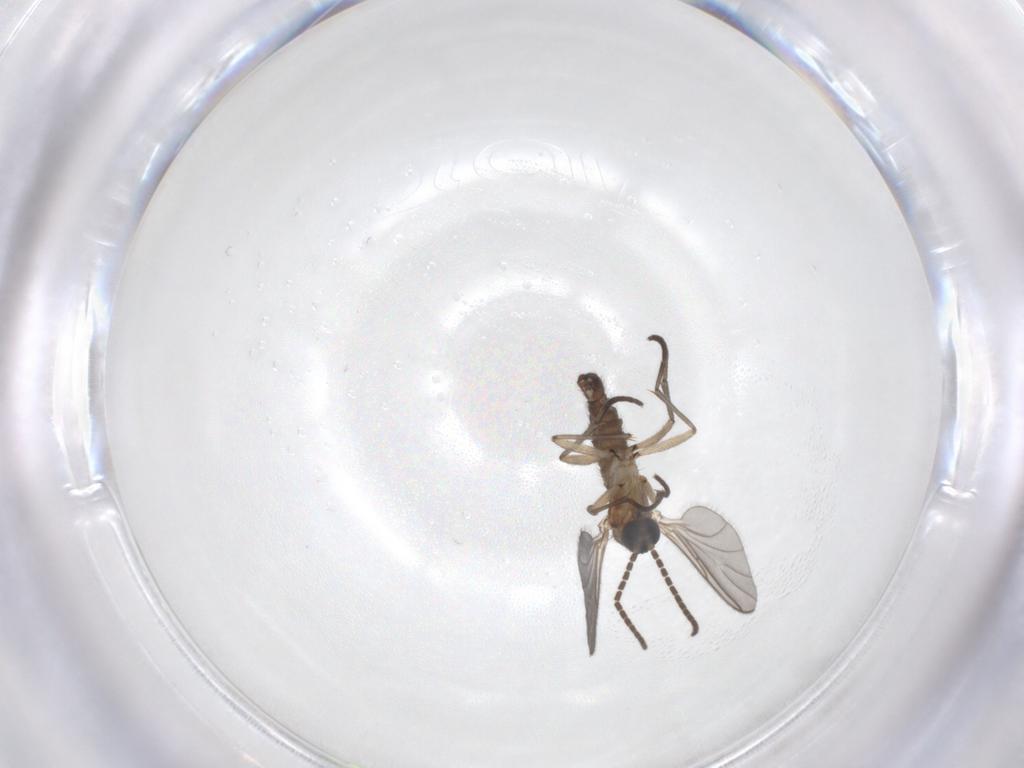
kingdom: Animalia
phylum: Arthropoda
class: Insecta
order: Diptera
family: Sciaridae
